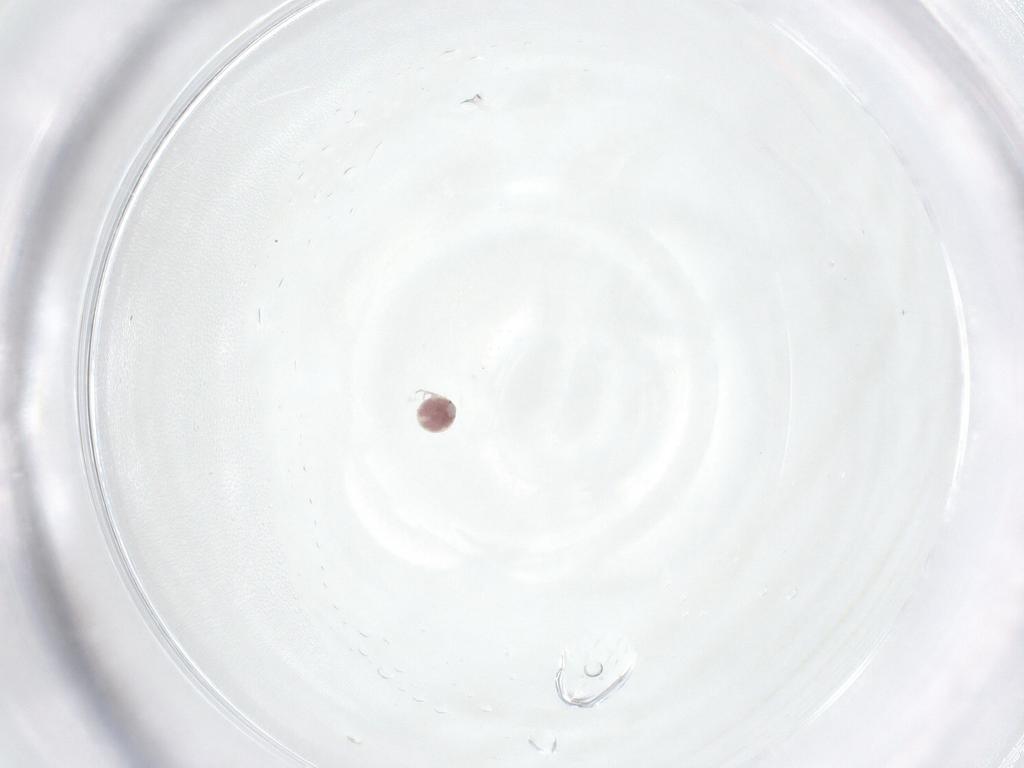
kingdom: Animalia
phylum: Arthropoda
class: Arachnida
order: Trombidiformes
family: Pionidae
